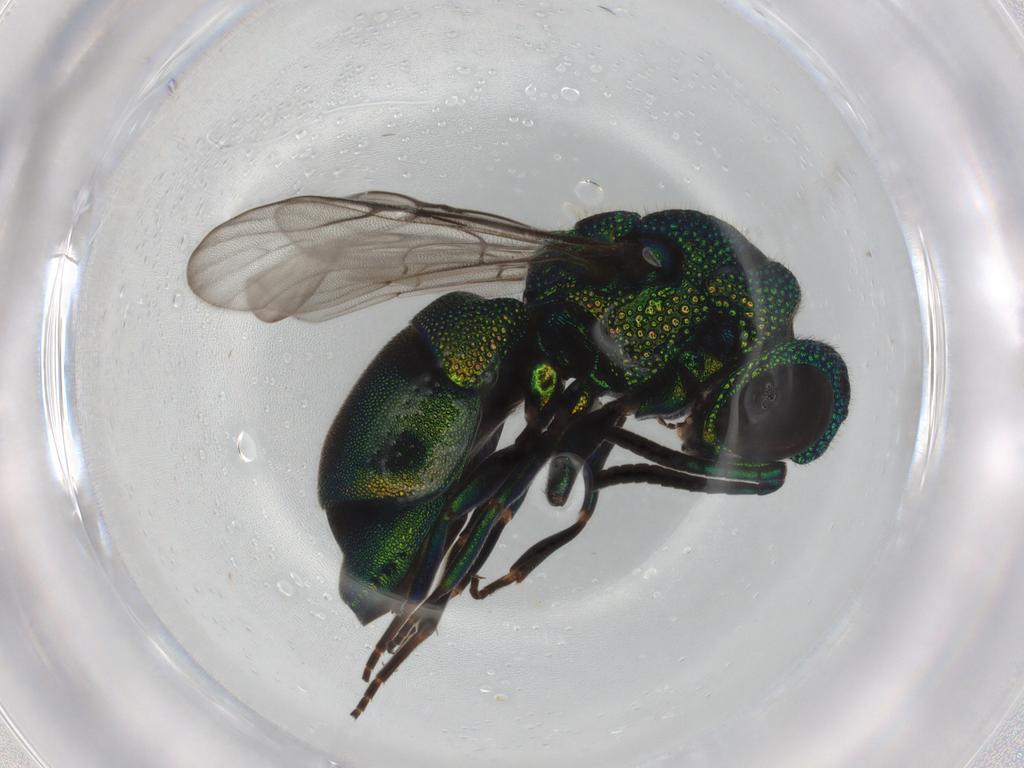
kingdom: Animalia
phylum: Arthropoda
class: Insecta
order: Hymenoptera
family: Chrysididae
